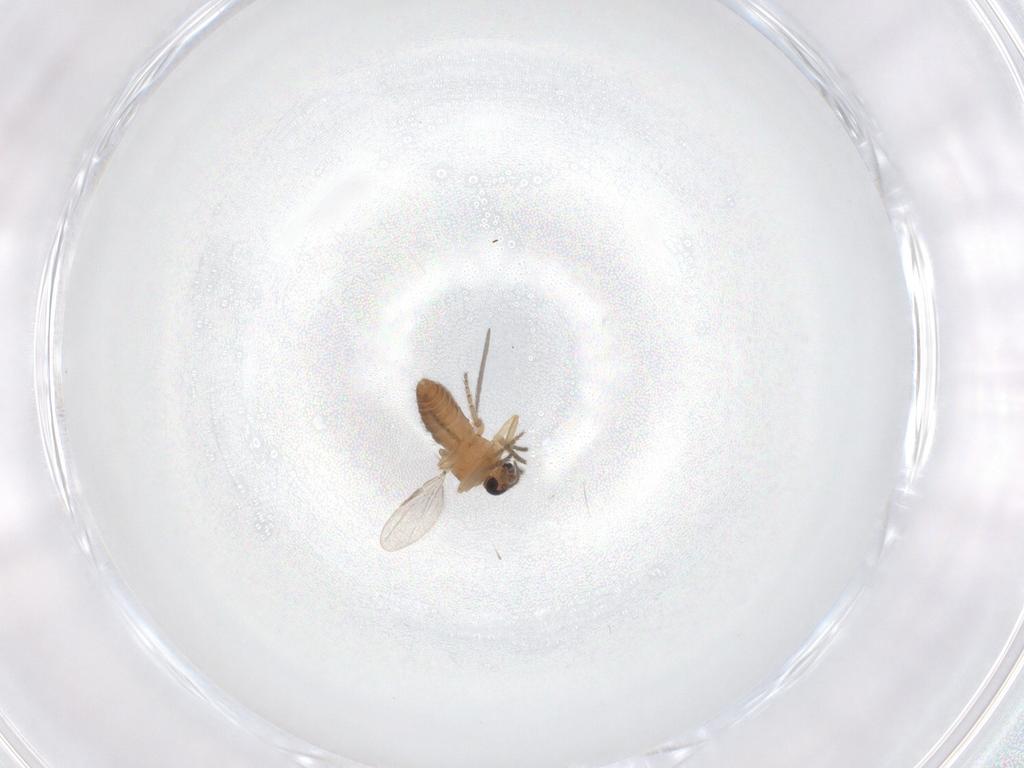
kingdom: Animalia
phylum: Arthropoda
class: Insecta
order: Diptera
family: Ceratopogonidae
